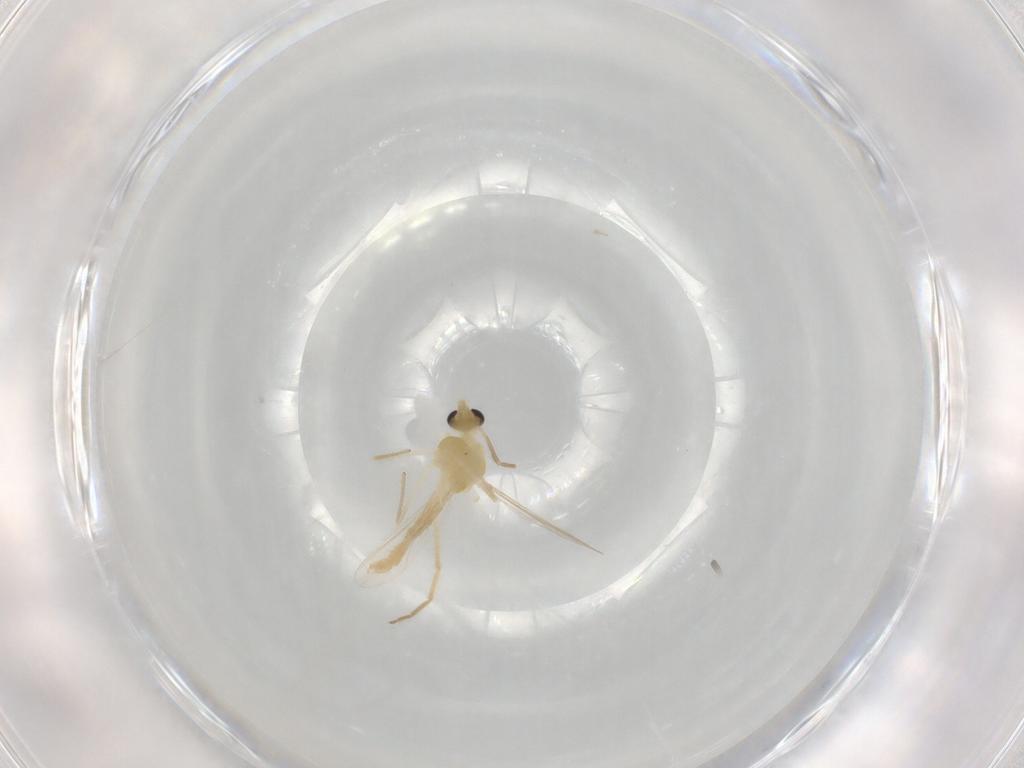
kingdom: Animalia
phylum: Arthropoda
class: Insecta
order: Diptera
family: Chironomidae
